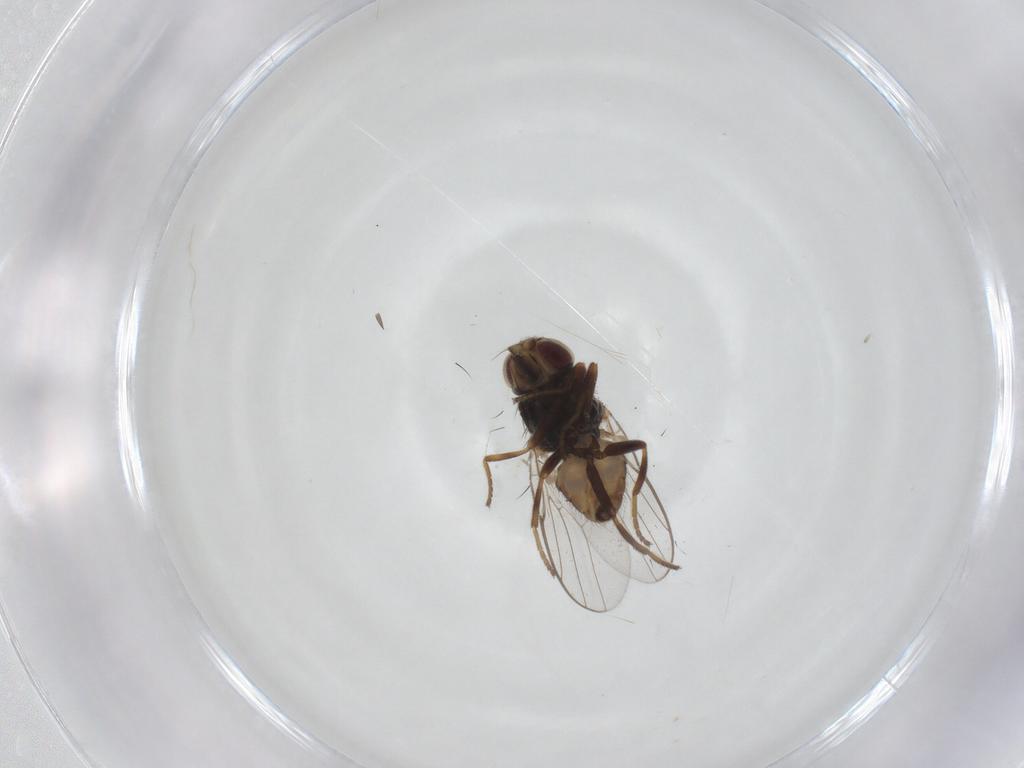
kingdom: Animalia
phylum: Arthropoda
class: Insecta
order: Diptera
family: Chloropidae
